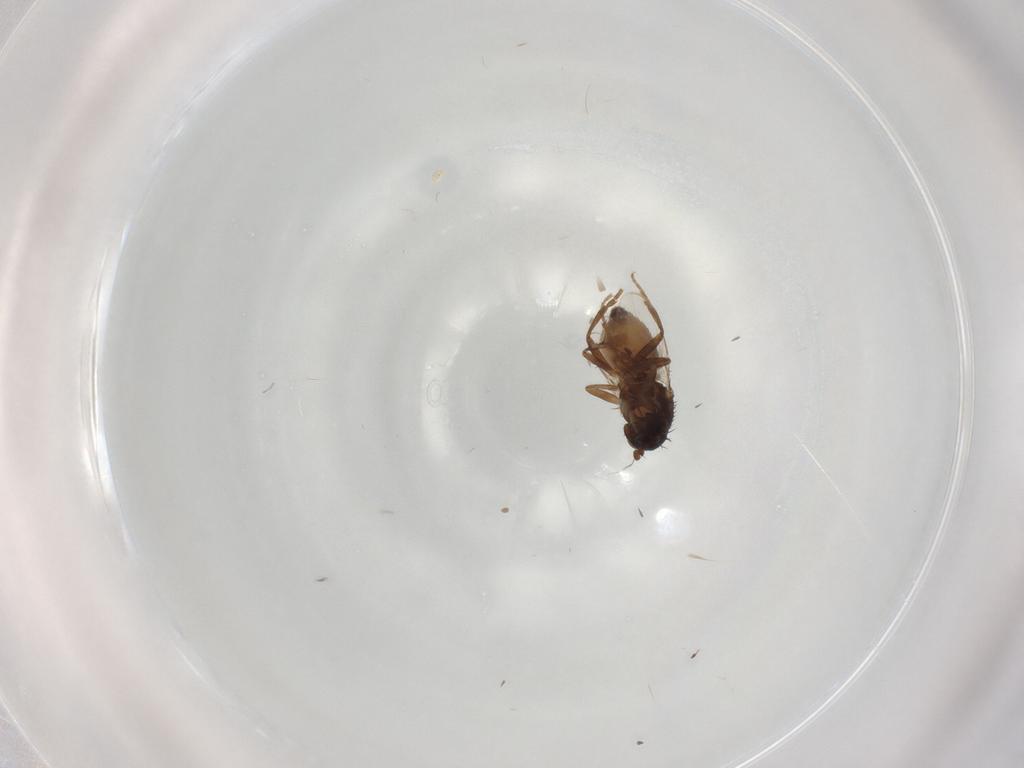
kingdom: Animalia
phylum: Arthropoda
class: Insecta
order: Diptera
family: Sphaeroceridae
